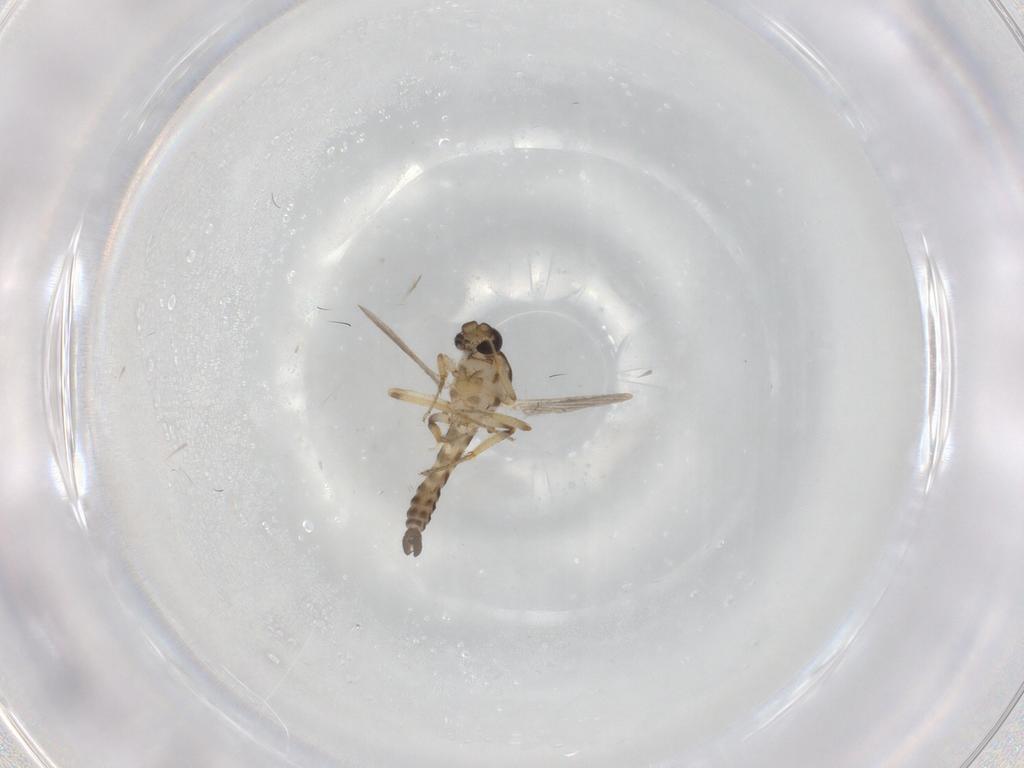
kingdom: Animalia
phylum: Arthropoda
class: Insecta
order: Diptera
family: Ceratopogonidae
